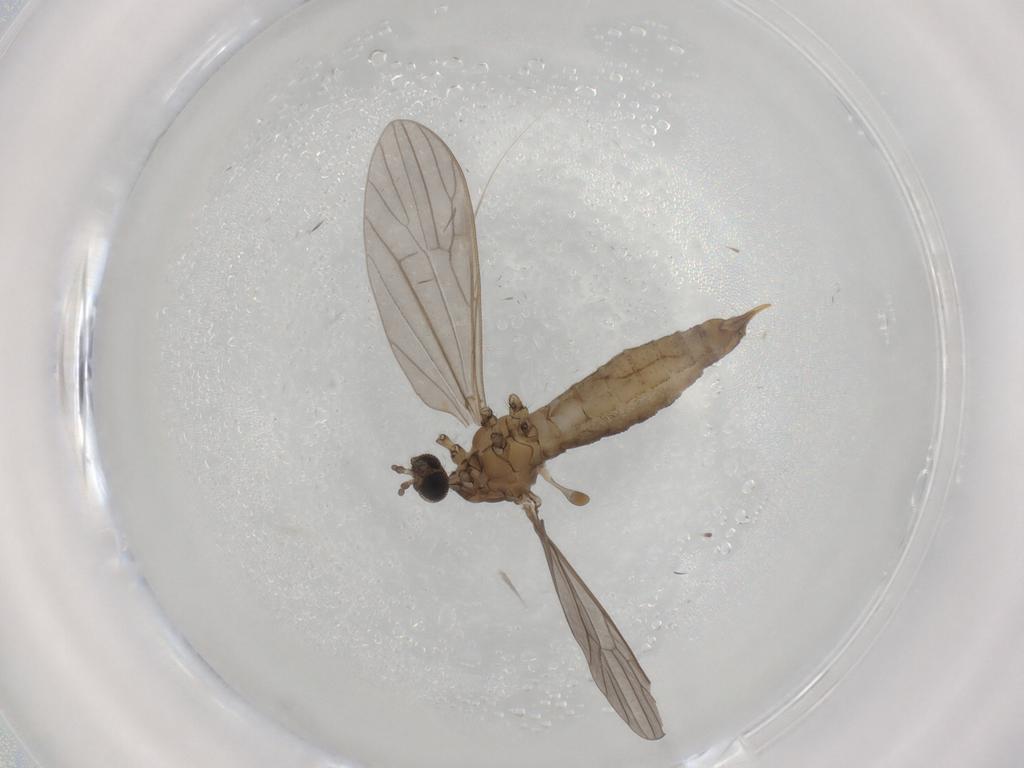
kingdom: Animalia
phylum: Arthropoda
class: Insecta
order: Diptera
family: Limoniidae
